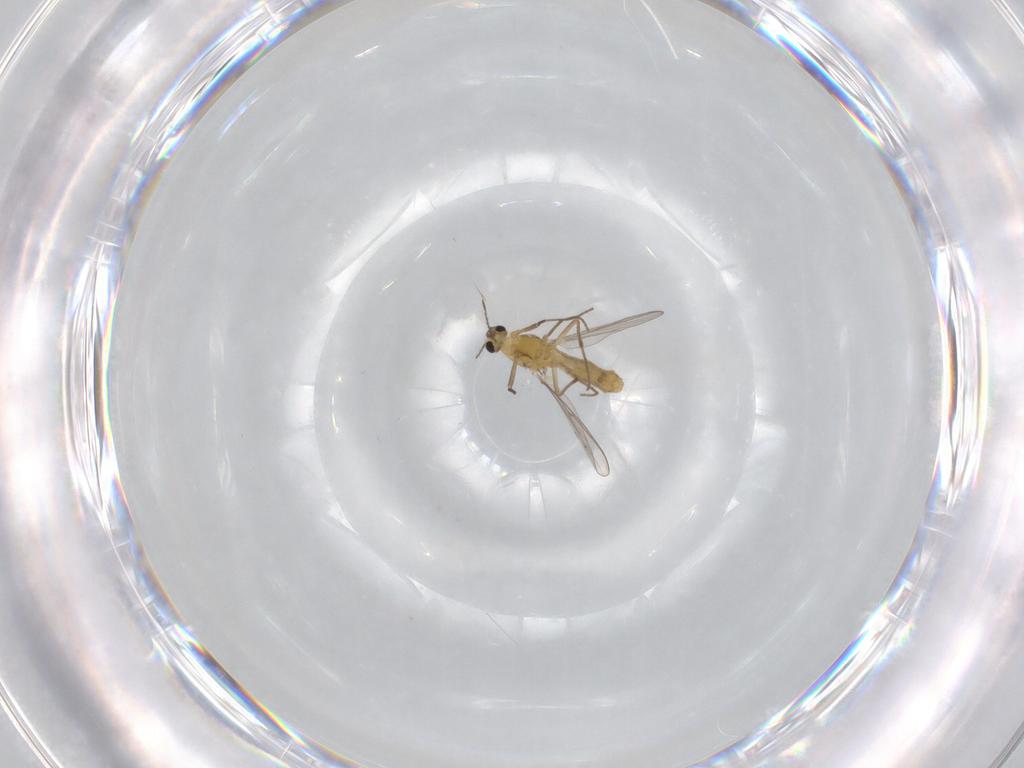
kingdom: Animalia
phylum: Arthropoda
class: Insecta
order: Diptera
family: Chironomidae
